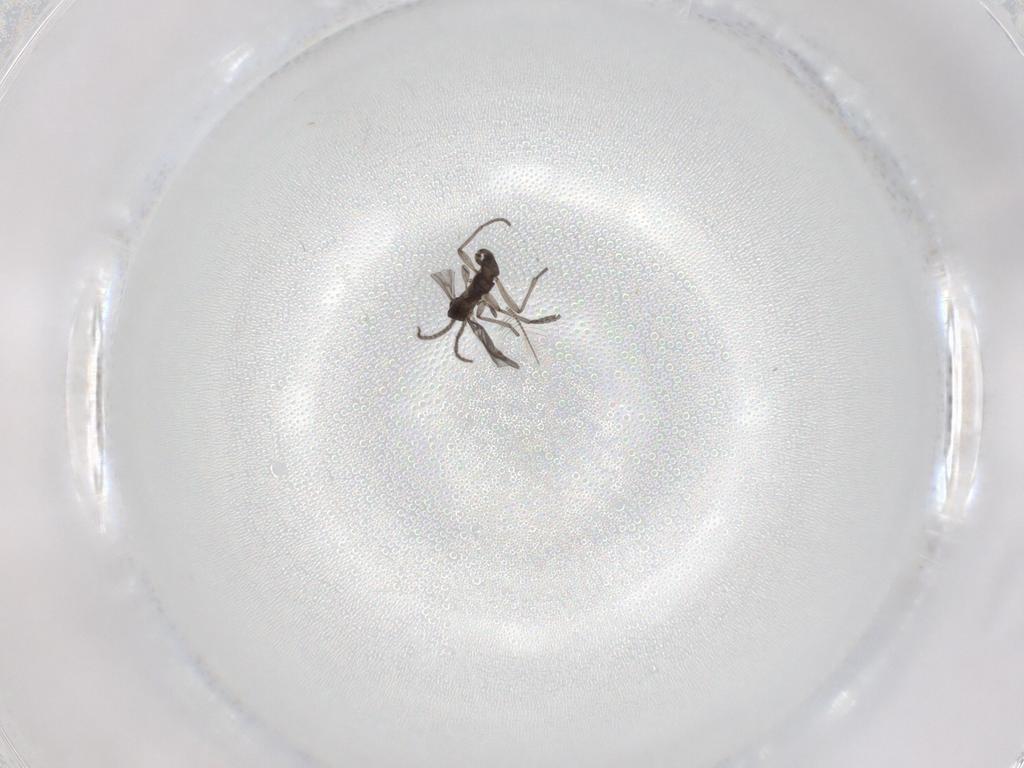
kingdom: Animalia
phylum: Arthropoda
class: Insecta
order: Diptera
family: Sciaridae
